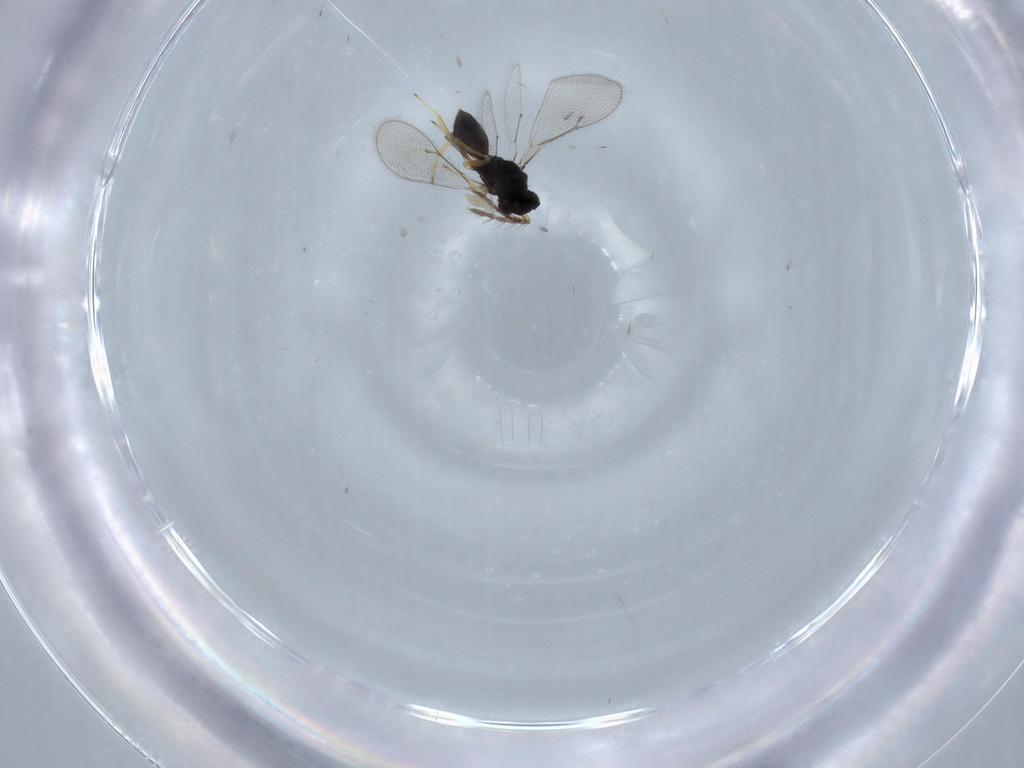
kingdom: Animalia
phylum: Arthropoda
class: Insecta
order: Hymenoptera
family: Eulophidae
